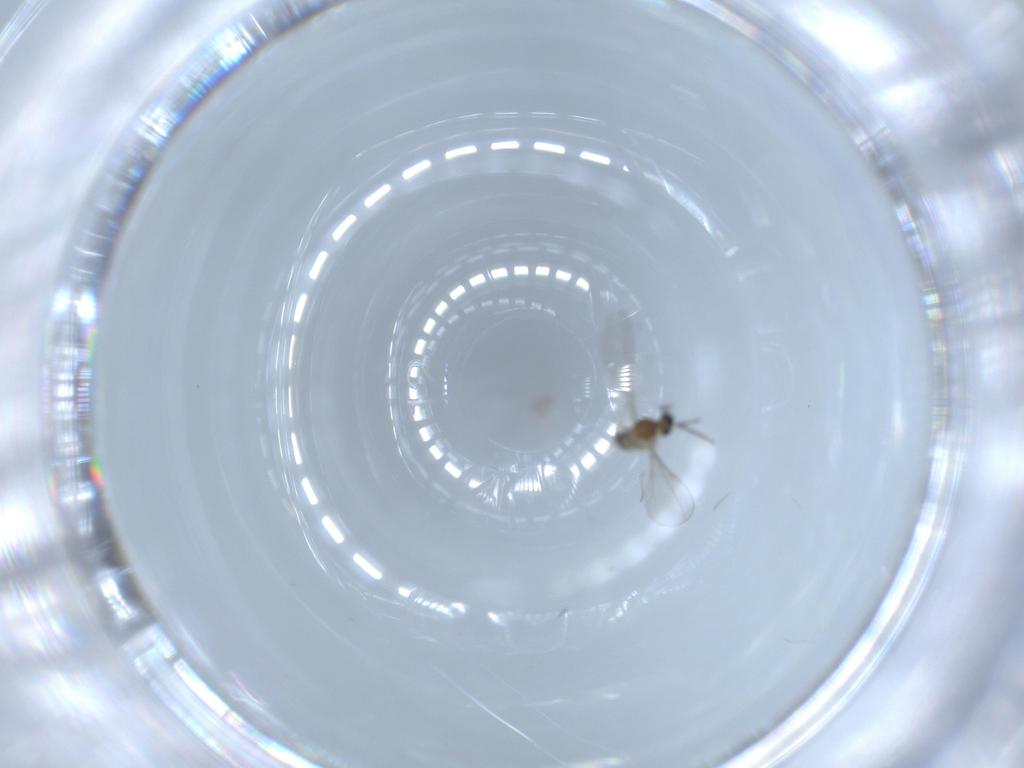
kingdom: Animalia
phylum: Arthropoda
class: Insecta
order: Diptera
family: Cecidomyiidae
